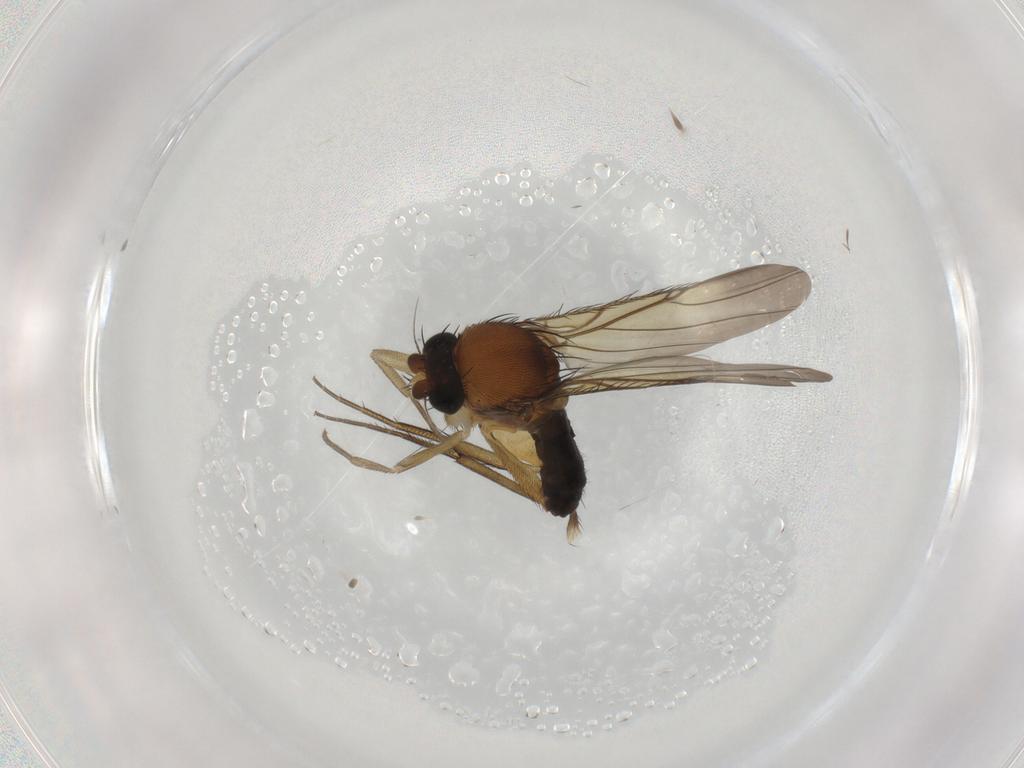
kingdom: Animalia
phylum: Arthropoda
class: Insecta
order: Diptera
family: Phoridae
